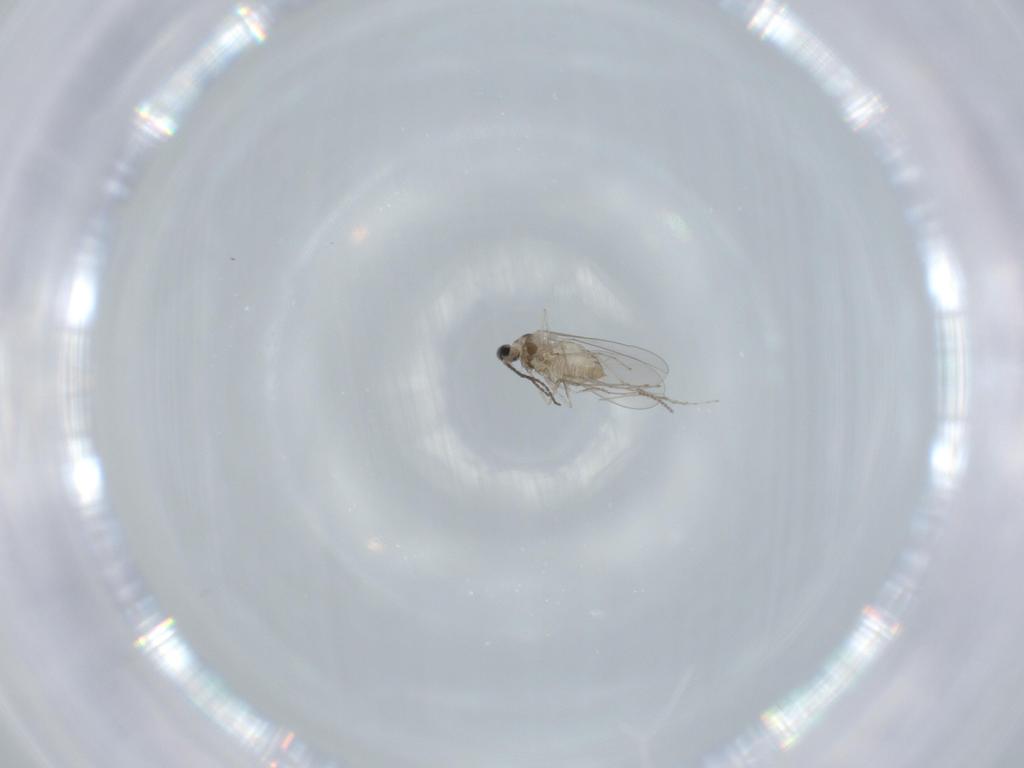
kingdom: Animalia
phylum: Arthropoda
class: Insecta
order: Diptera
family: Cecidomyiidae
